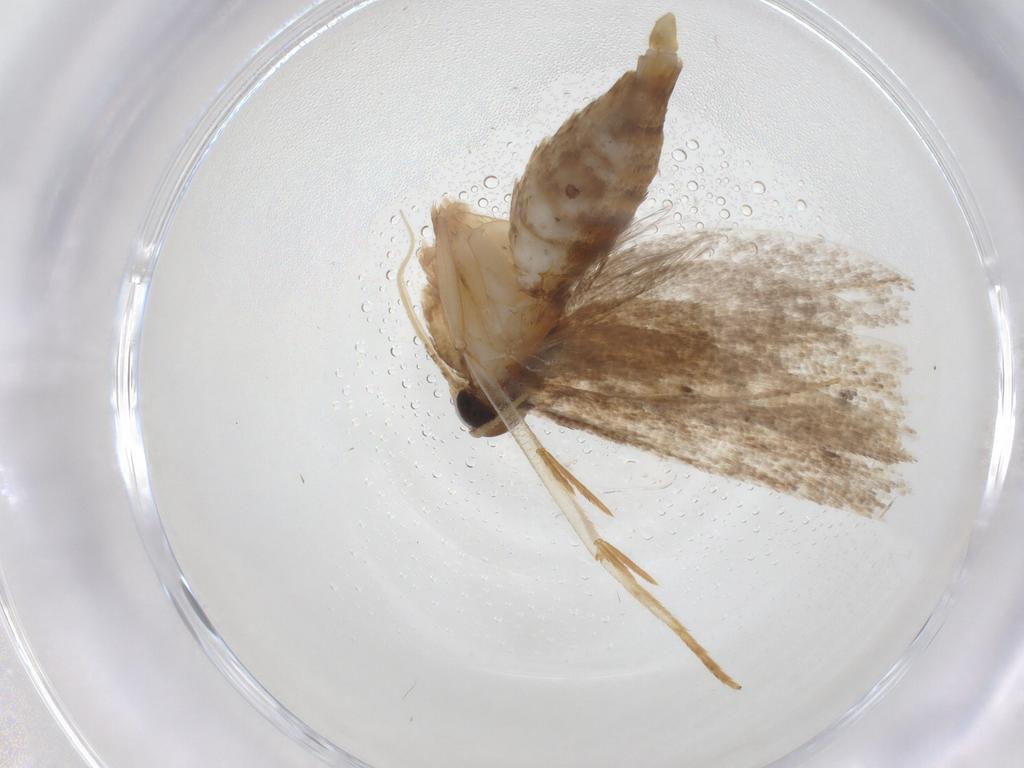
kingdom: Animalia
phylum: Arthropoda
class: Insecta
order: Lepidoptera
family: Oecophoridae
